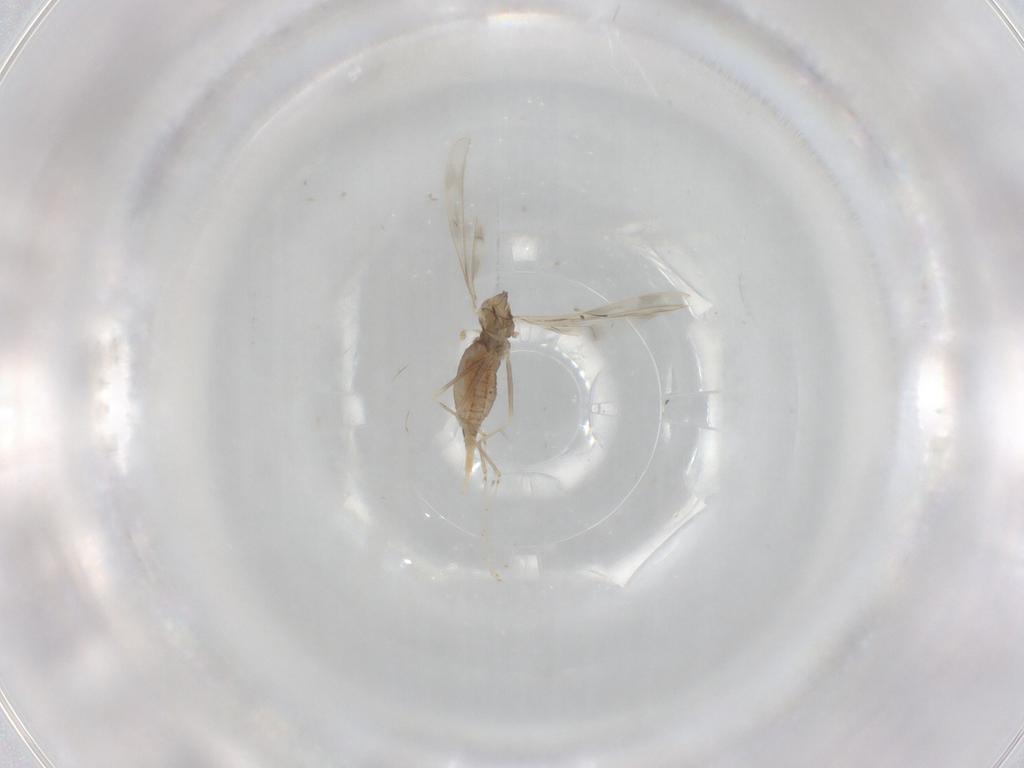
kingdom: Animalia
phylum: Arthropoda
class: Insecta
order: Diptera
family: Cecidomyiidae
